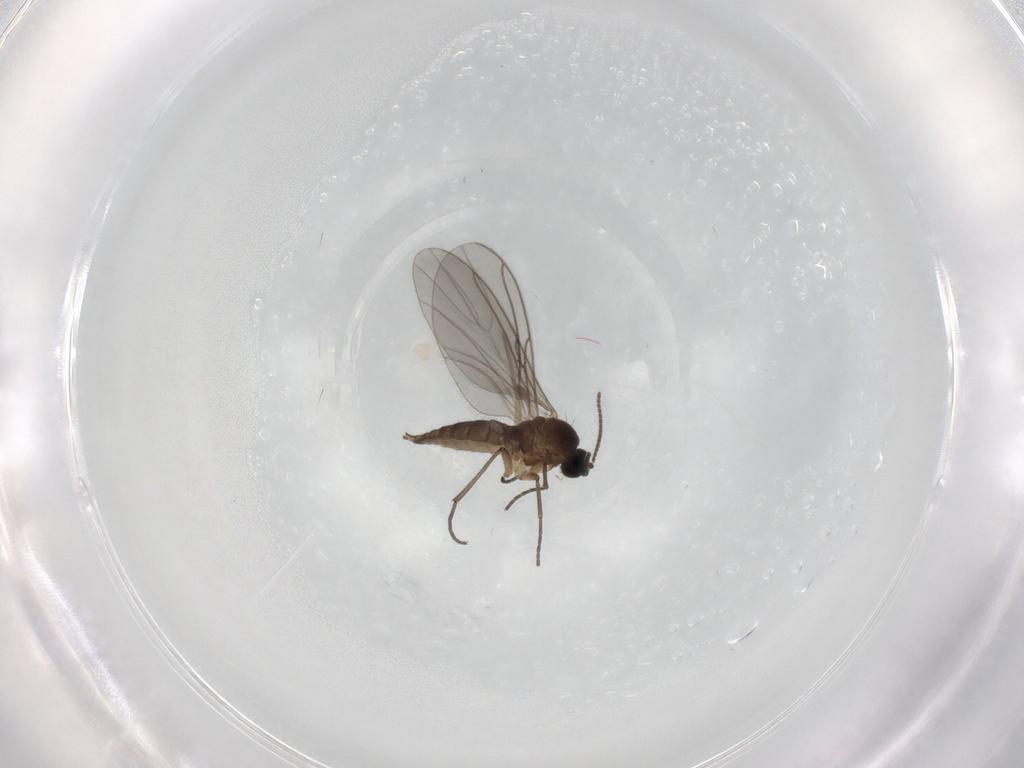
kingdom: Animalia
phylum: Arthropoda
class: Insecta
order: Diptera
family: Sciaridae
